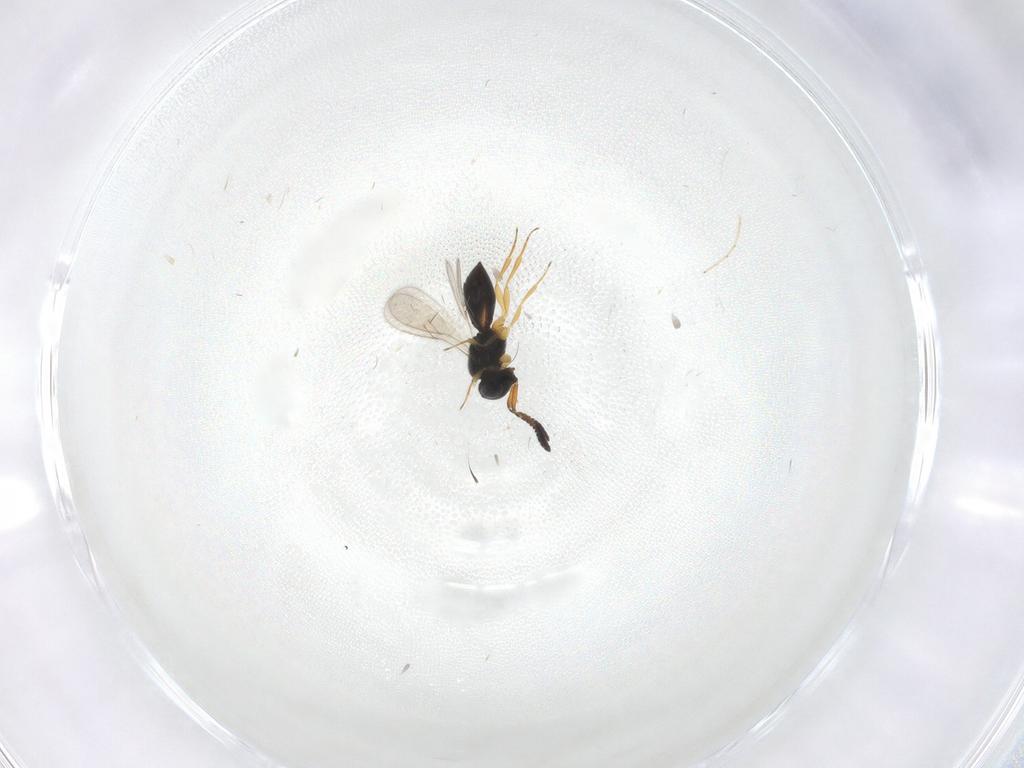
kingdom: Animalia
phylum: Arthropoda
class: Insecta
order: Hymenoptera
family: Scelionidae
